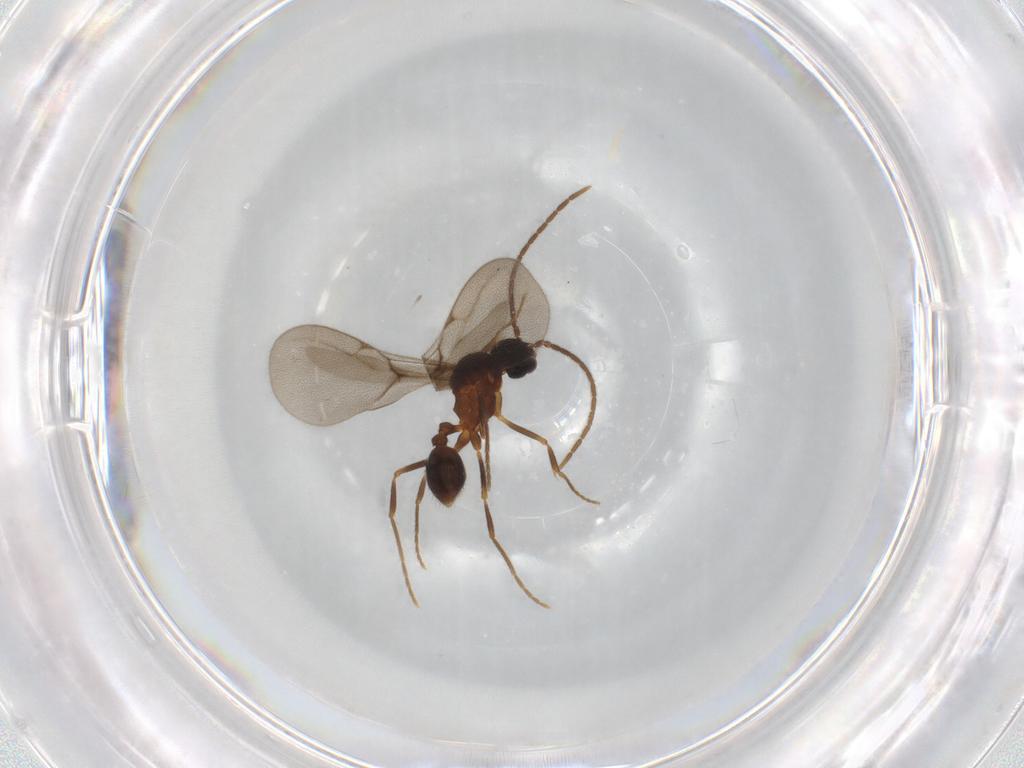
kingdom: Animalia
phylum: Arthropoda
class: Insecta
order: Hymenoptera
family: Formicidae
